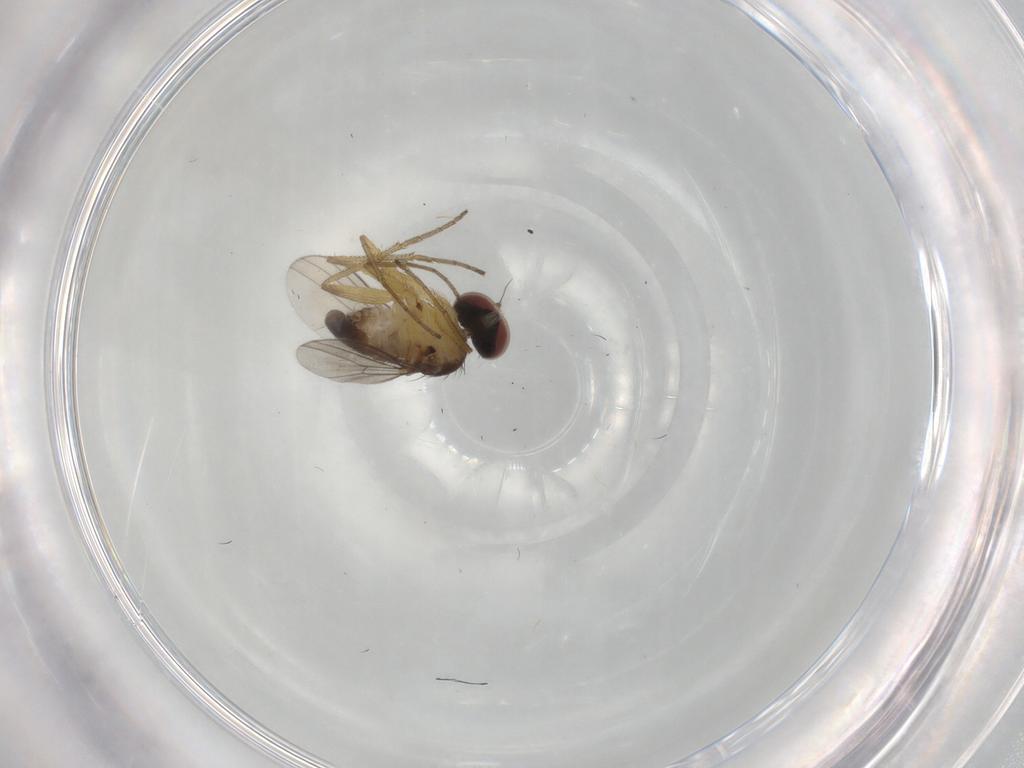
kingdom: Animalia
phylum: Arthropoda
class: Insecta
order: Diptera
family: Dolichopodidae
